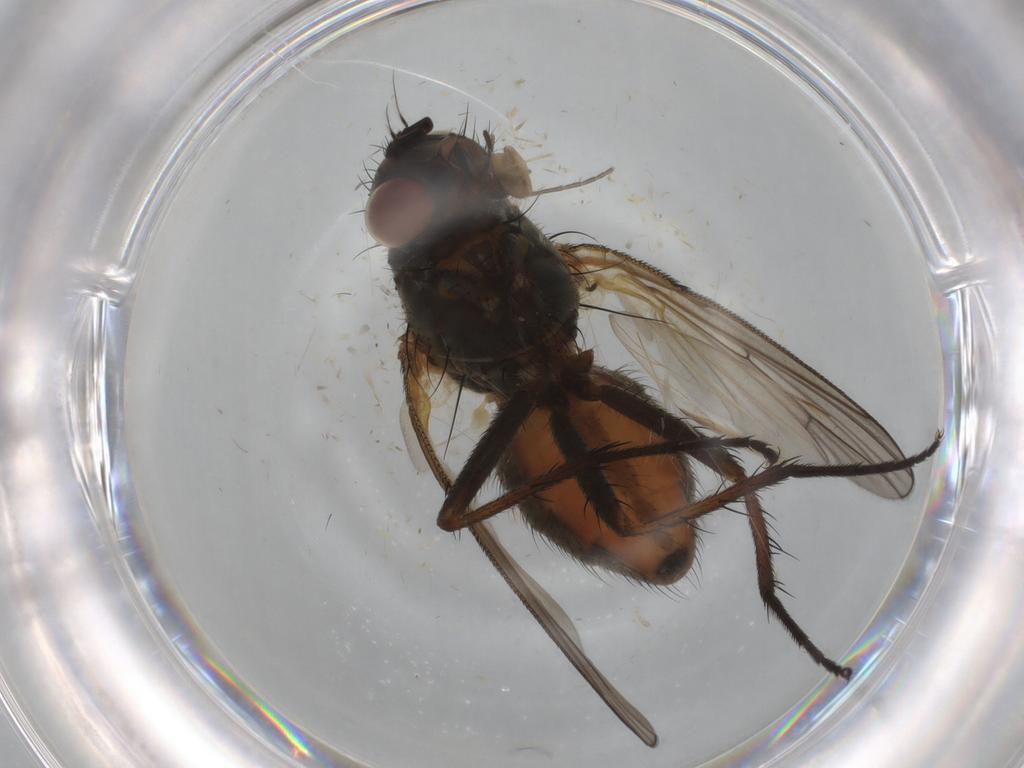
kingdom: Animalia
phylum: Arthropoda
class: Insecta
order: Diptera
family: Anthomyiidae
